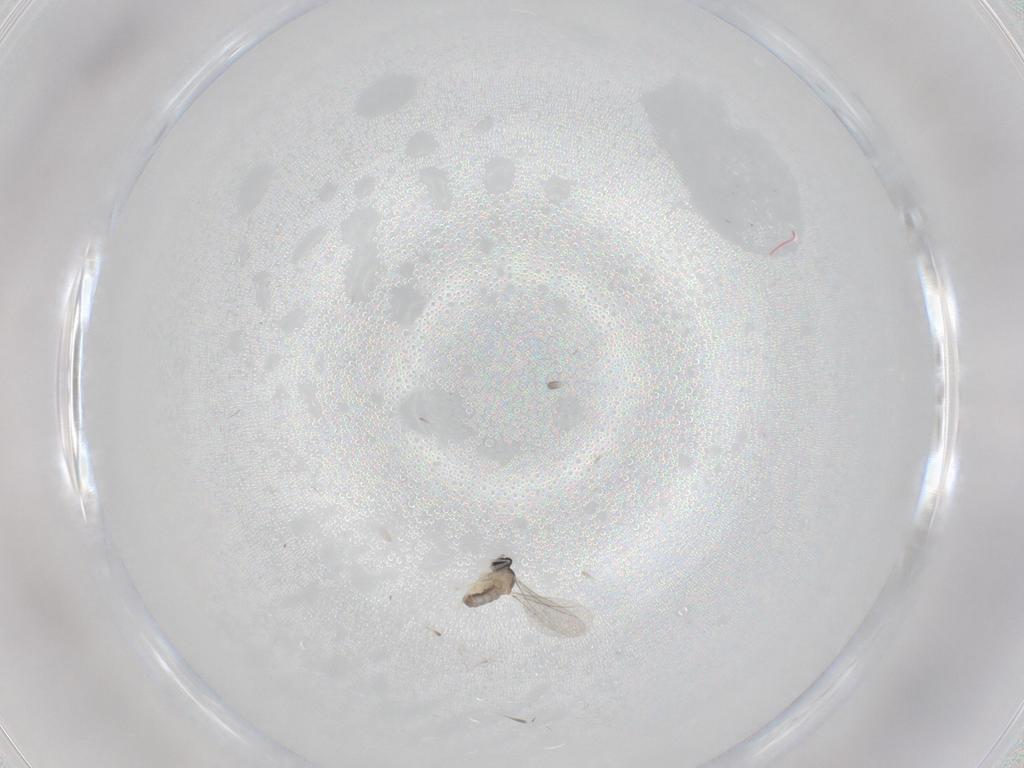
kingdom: Animalia
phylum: Arthropoda
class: Insecta
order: Diptera
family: Cecidomyiidae
